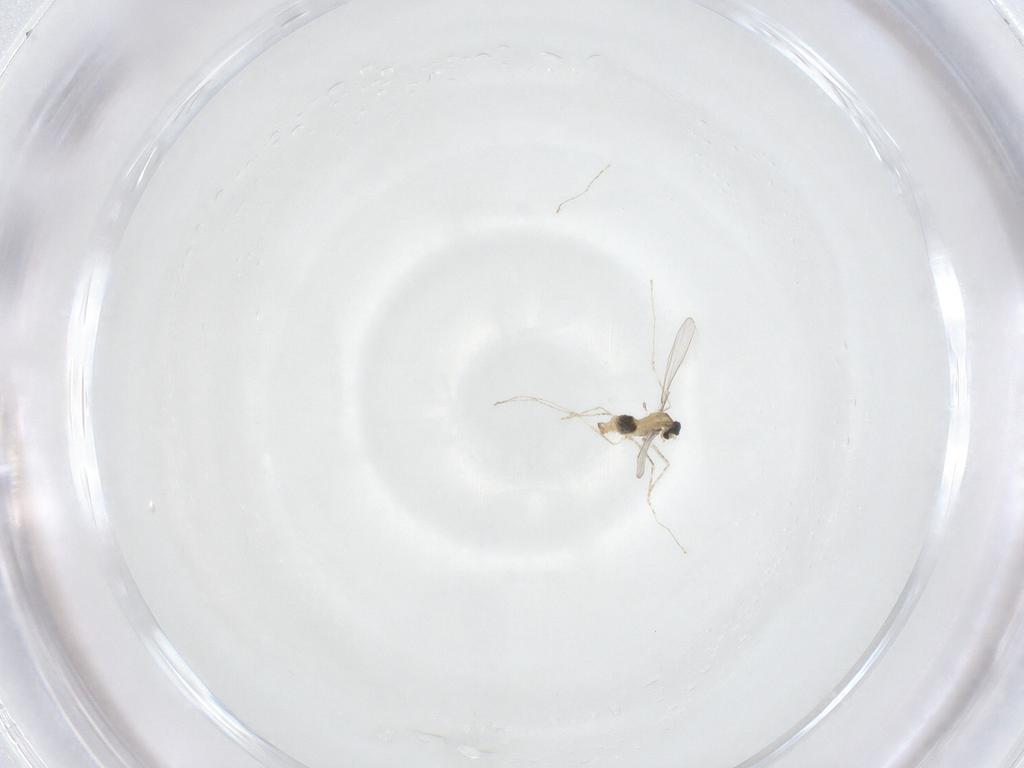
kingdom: Animalia
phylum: Arthropoda
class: Insecta
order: Diptera
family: Cecidomyiidae
